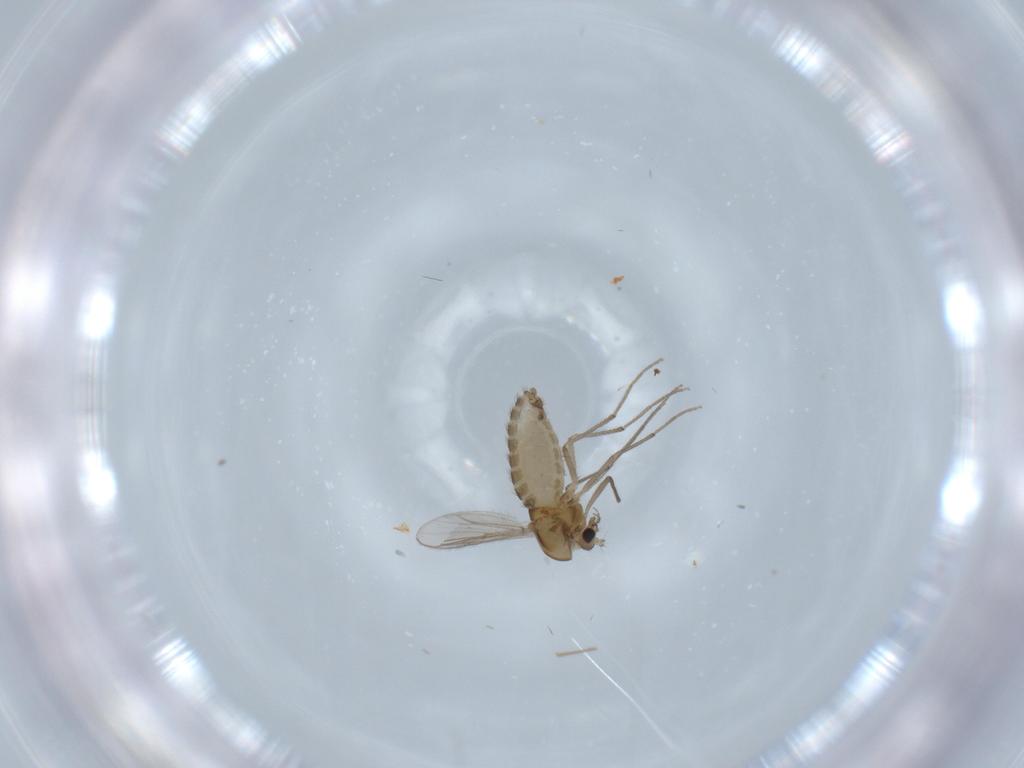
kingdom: Animalia
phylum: Arthropoda
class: Insecta
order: Diptera
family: Chironomidae
